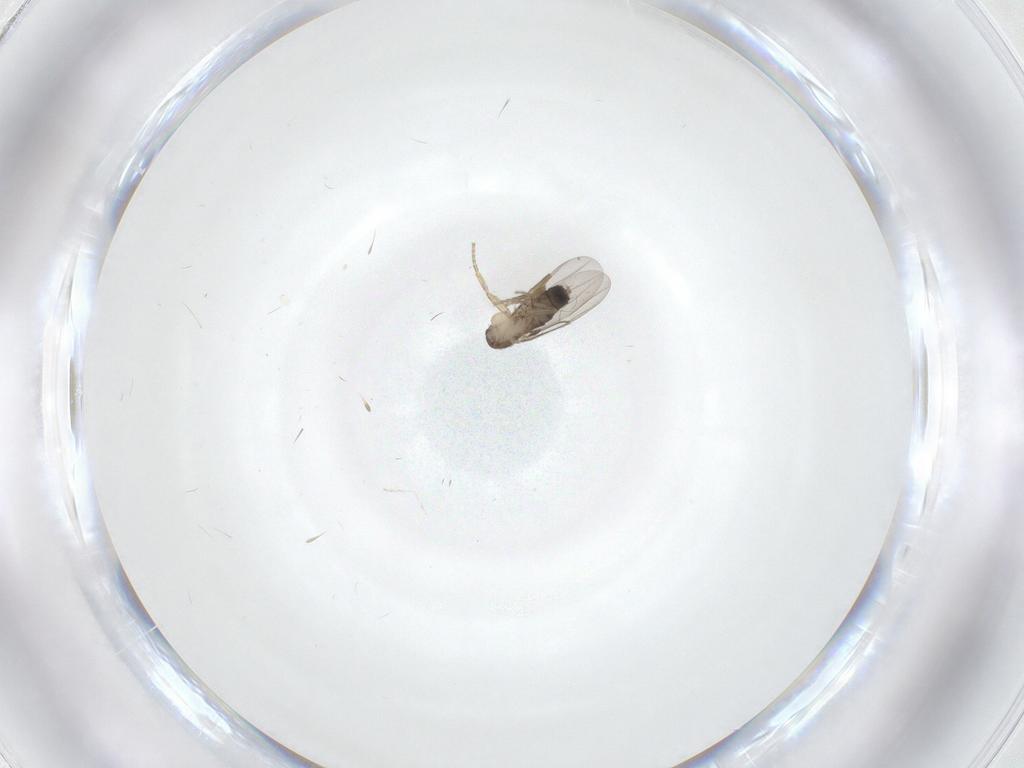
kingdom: Animalia
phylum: Arthropoda
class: Insecta
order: Diptera
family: Phoridae
